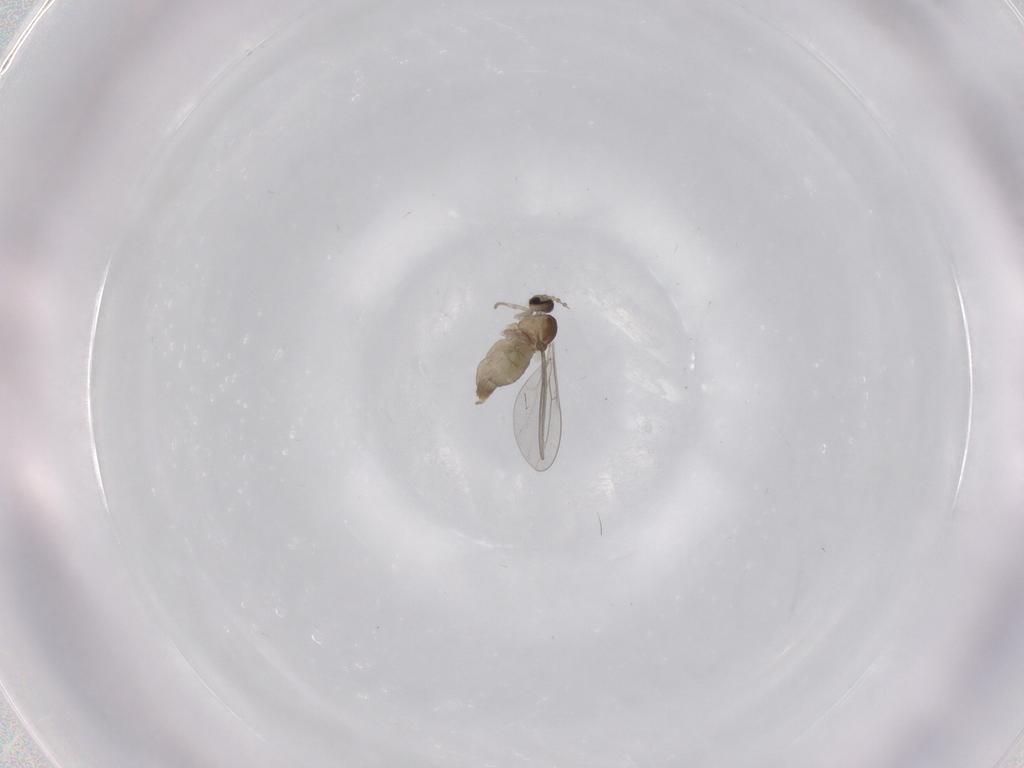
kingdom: Animalia
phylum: Arthropoda
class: Insecta
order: Diptera
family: Cecidomyiidae
